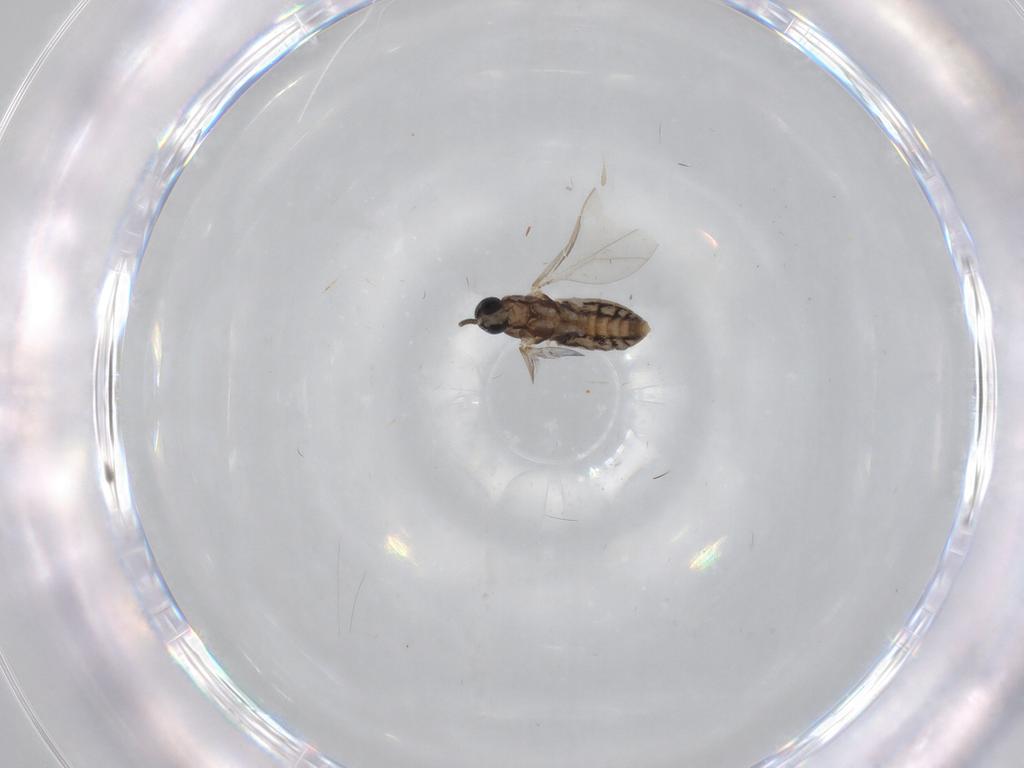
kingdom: Animalia
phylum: Arthropoda
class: Insecta
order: Diptera
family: Cecidomyiidae
